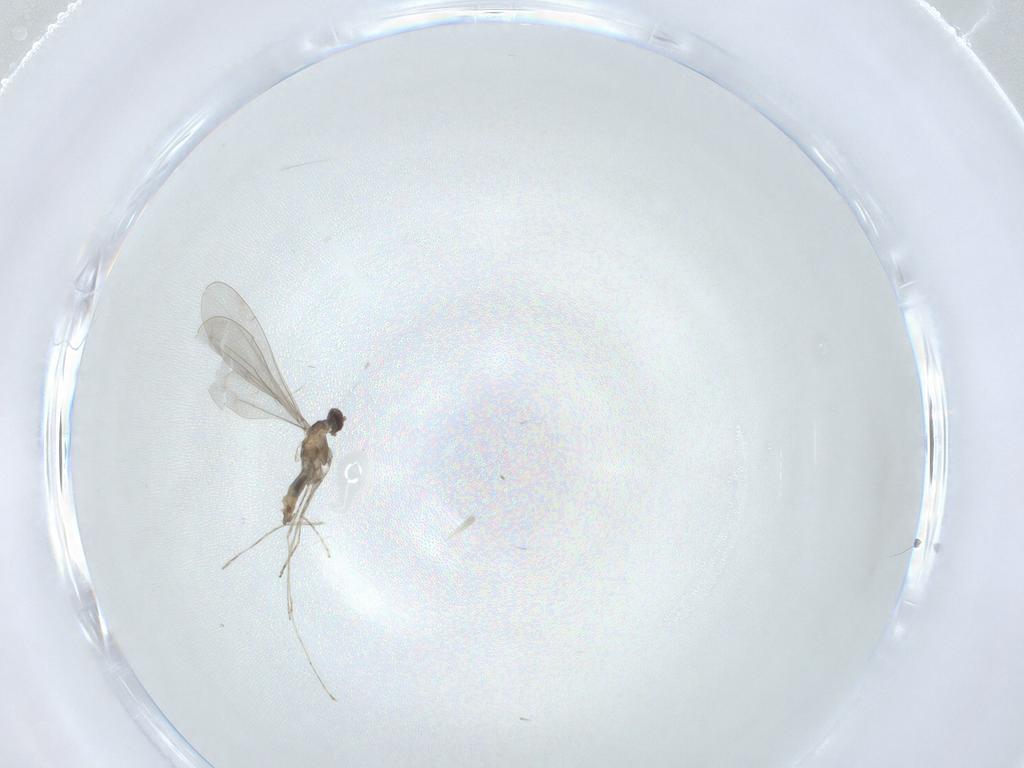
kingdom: Animalia
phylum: Arthropoda
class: Insecta
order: Diptera
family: Cecidomyiidae
